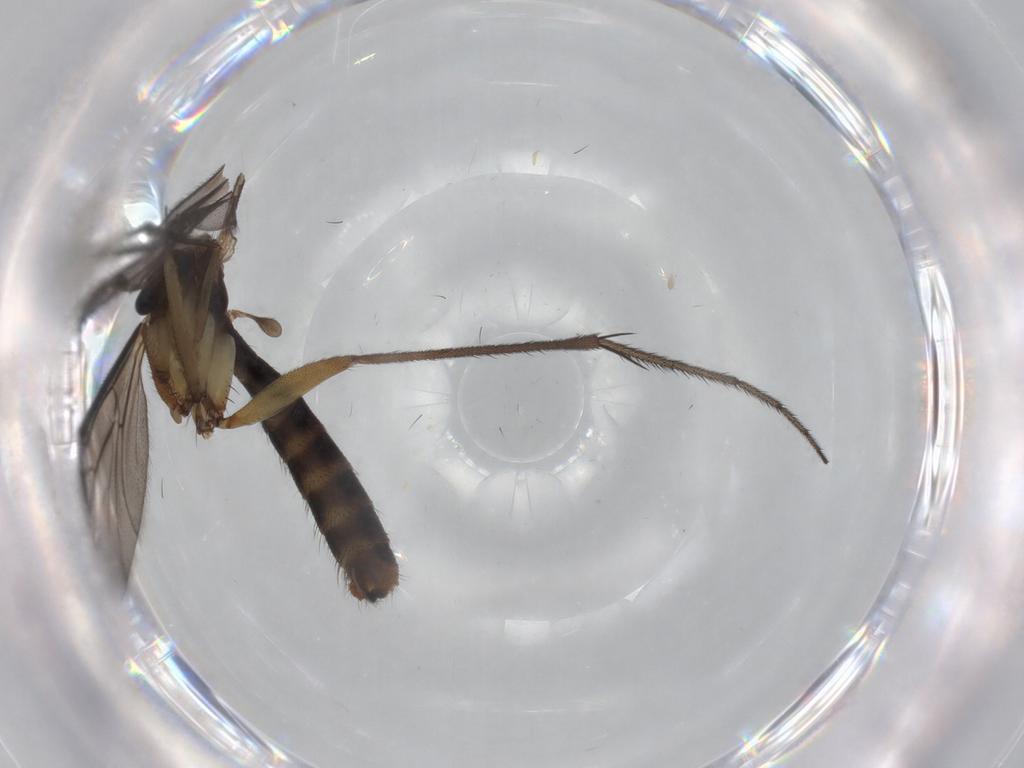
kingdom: Animalia
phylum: Arthropoda
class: Insecta
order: Diptera
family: Limoniidae
